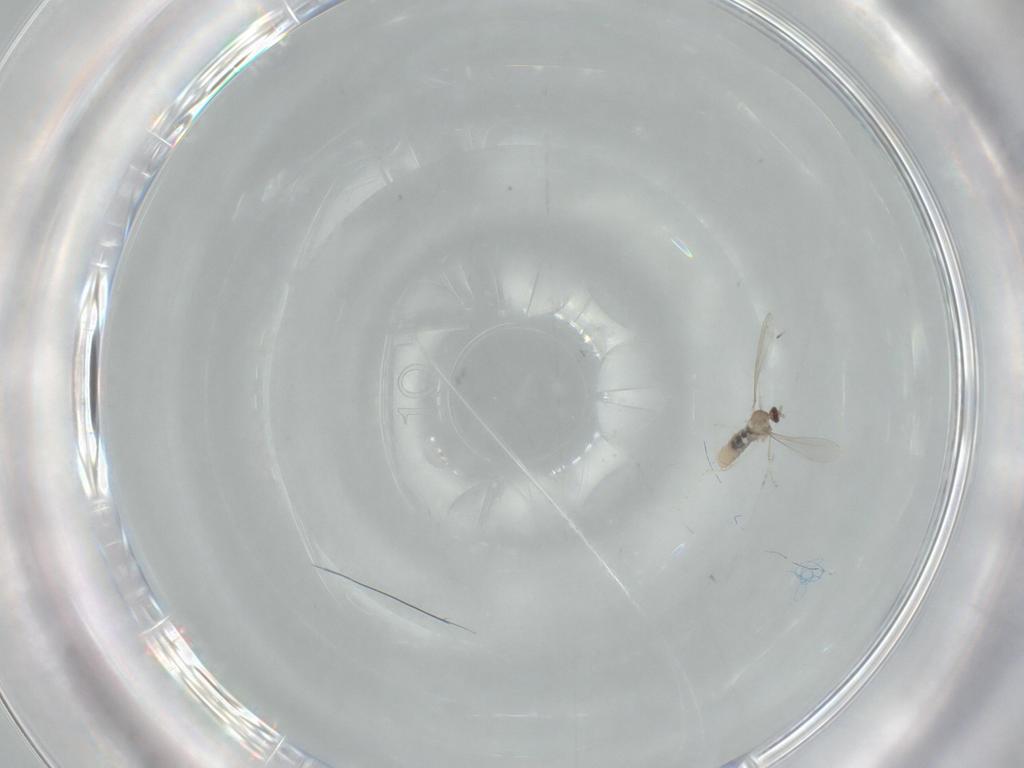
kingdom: Animalia
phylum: Arthropoda
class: Insecta
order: Diptera
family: Cecidomyiidae
